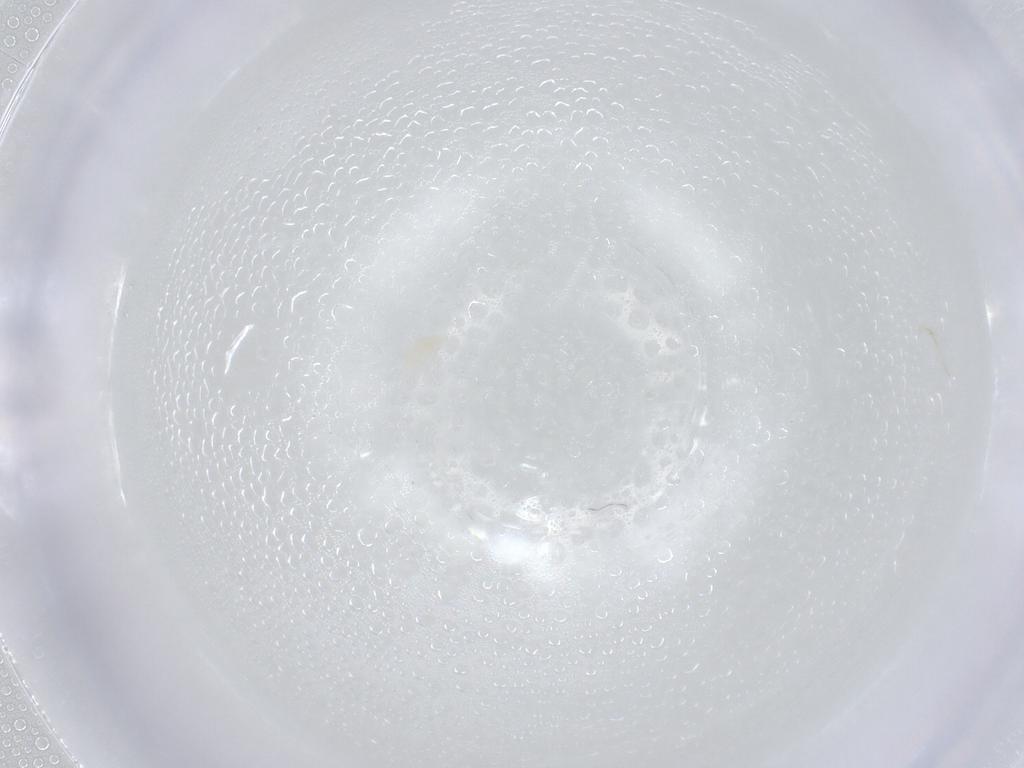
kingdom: Animalia
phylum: Arthropoda
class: Arachnida
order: Trombidiformes
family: Eupodidae
